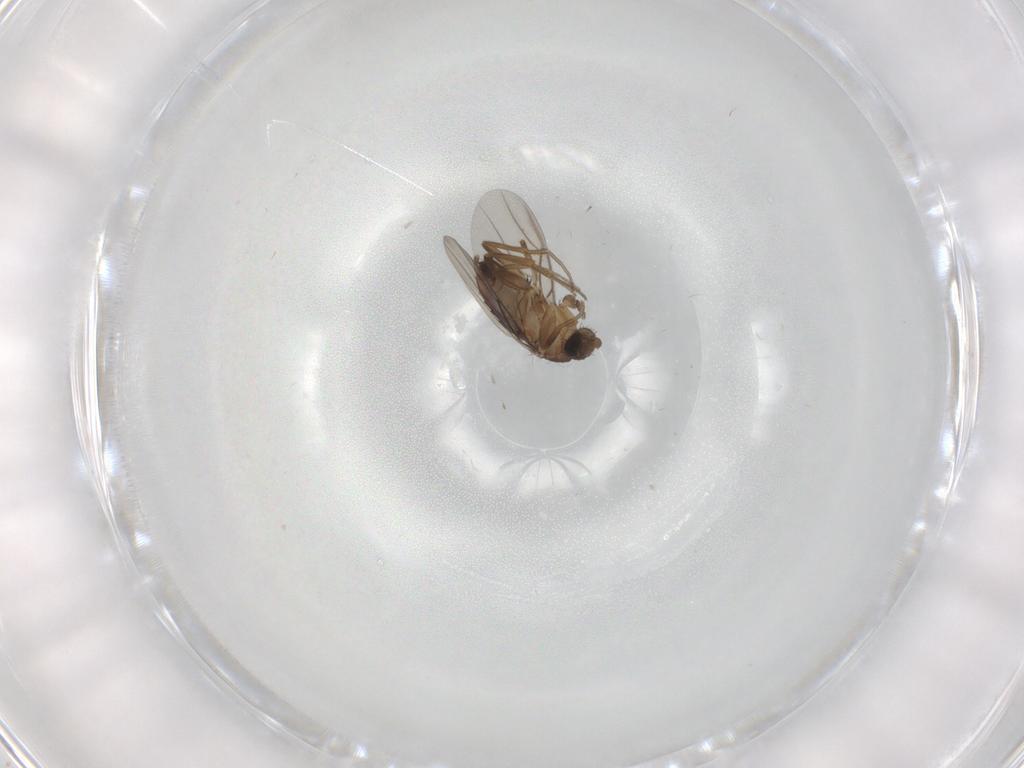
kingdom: Animalia
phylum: Arthropoda
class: Insecta
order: Diptera
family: Phoridae
